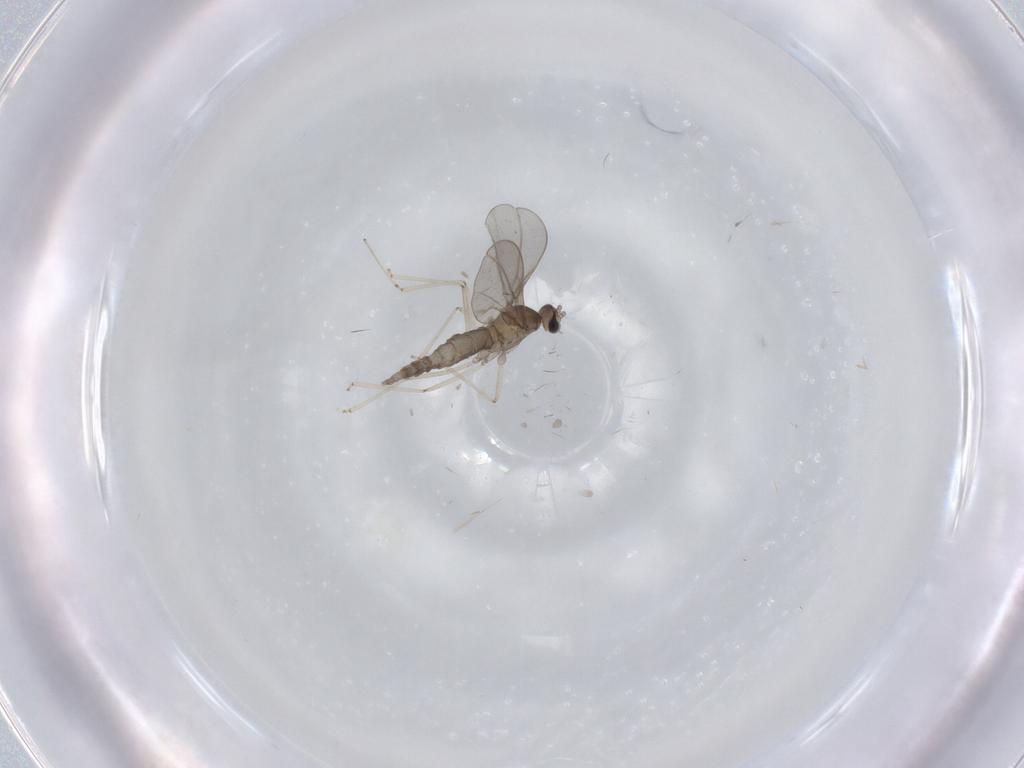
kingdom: Animalia
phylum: Arthropoda
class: Insecta
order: Diptera
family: Cecidomyiidae
